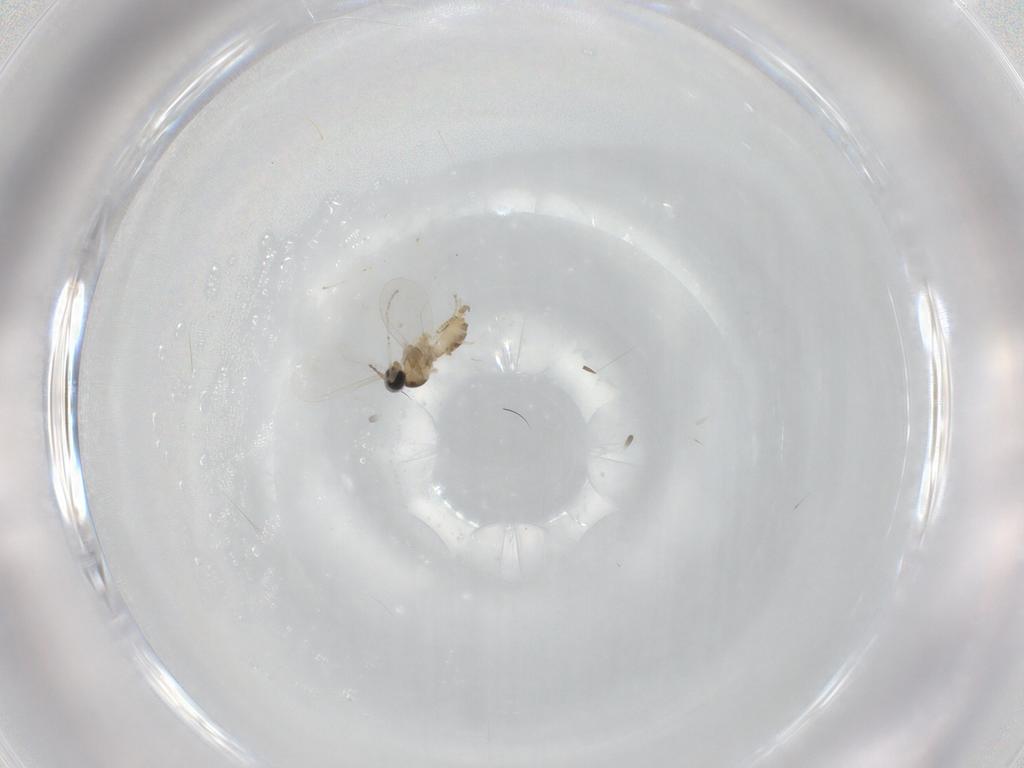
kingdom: Animalia
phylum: Arthropoda
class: Insecta
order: Diptera
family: Cecidomyiidae
